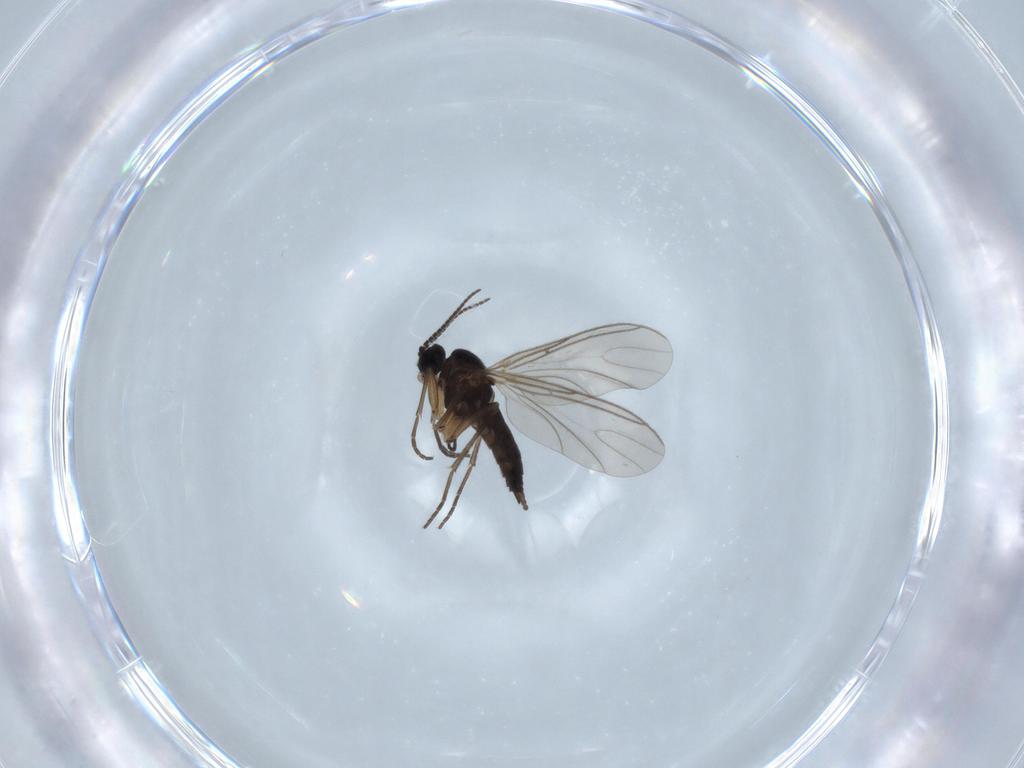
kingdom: Animalia
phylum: Arthropoda
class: Insecta
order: Diptera
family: Sciaridae
